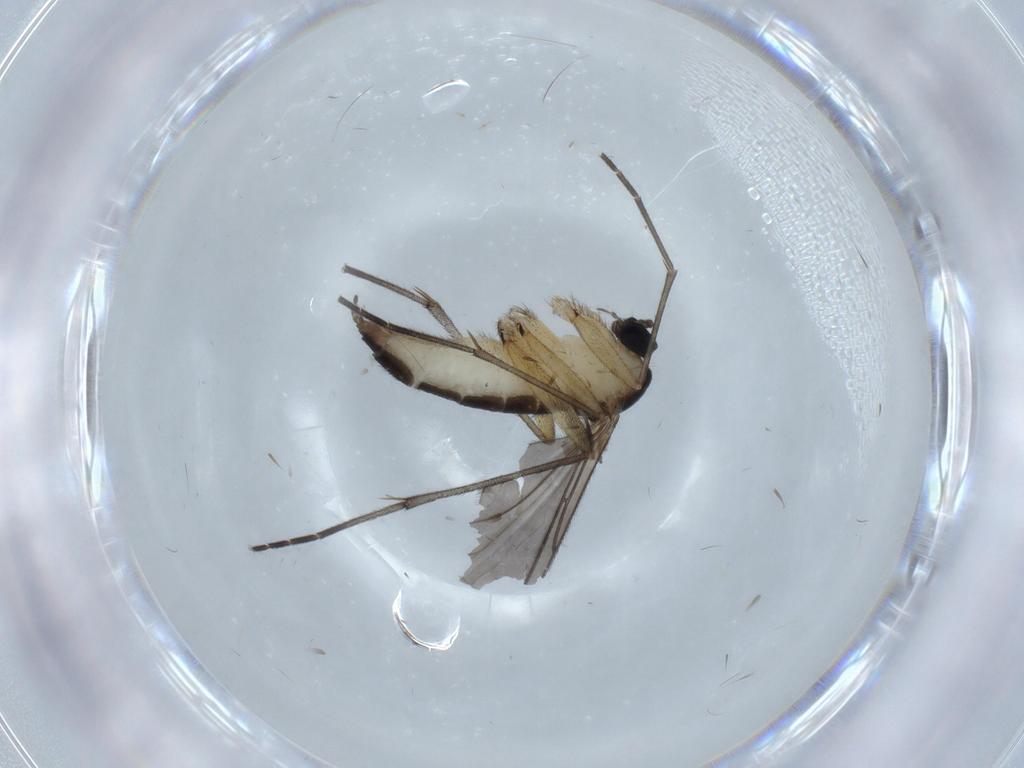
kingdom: Animalia
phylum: Arthropoda
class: Insecta
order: Diptera
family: Sciaridae
